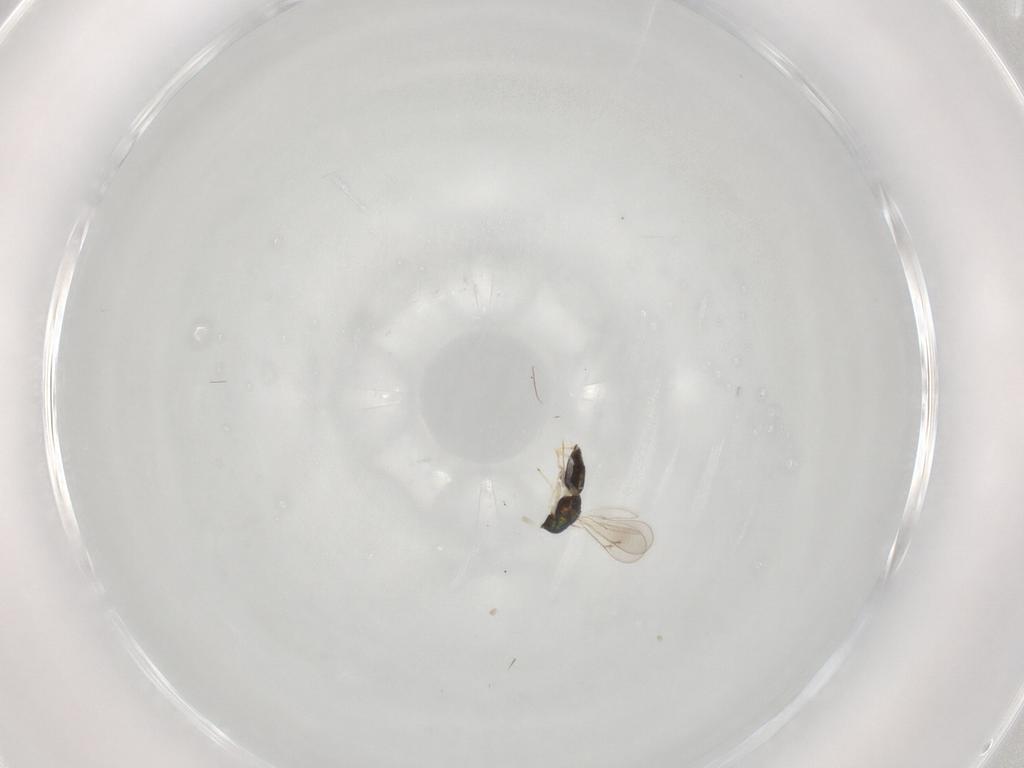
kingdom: Animalia
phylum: Arthropoda
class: Insecta
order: Hymenoptera
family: Eulophidae
